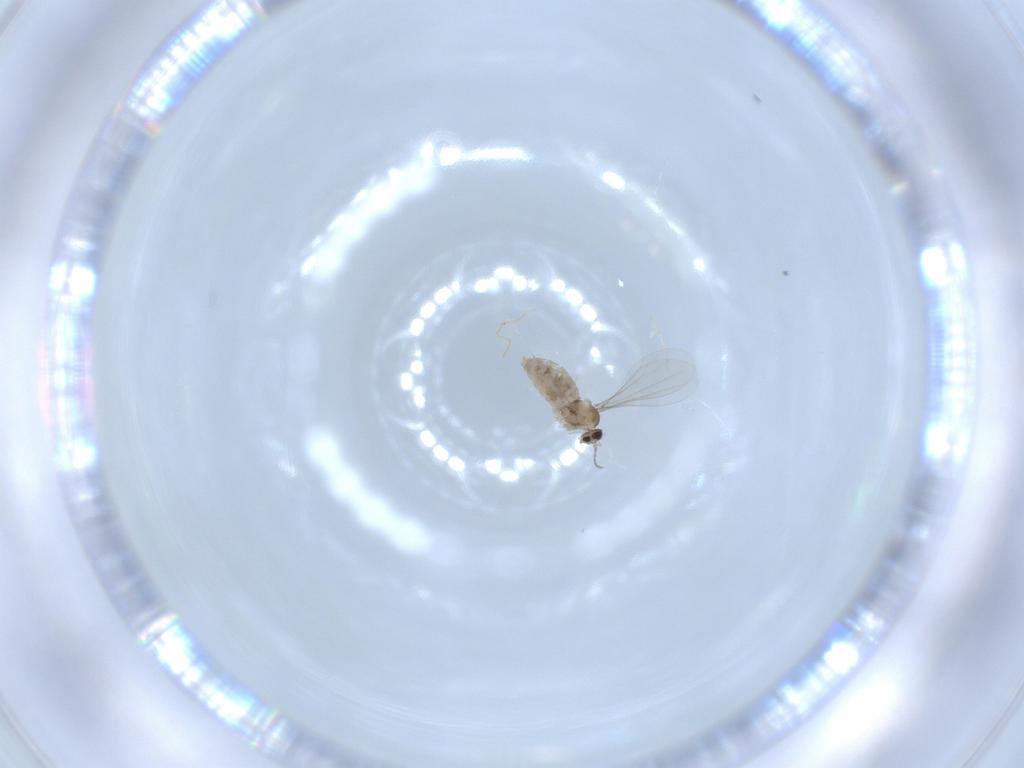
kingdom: Animalia
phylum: Arthropoda
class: Insecta
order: Diptera
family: Cecidomyiidae
